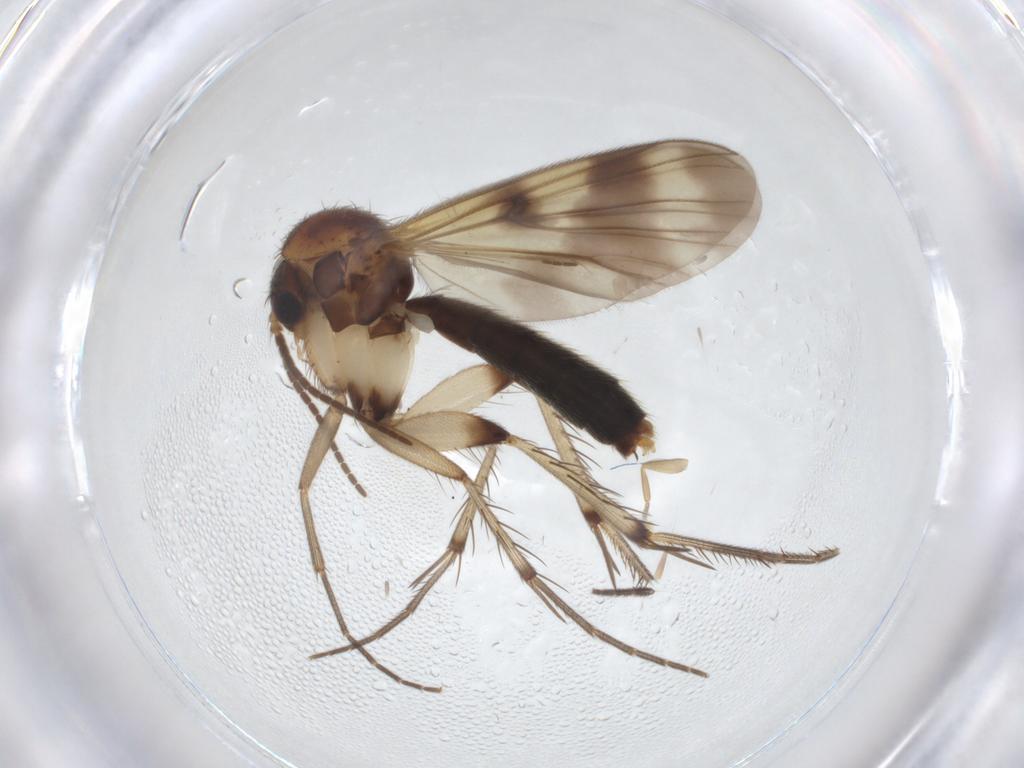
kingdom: Animalia
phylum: Arthropoda
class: Insecta
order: Diptera
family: Mycetophilidae
